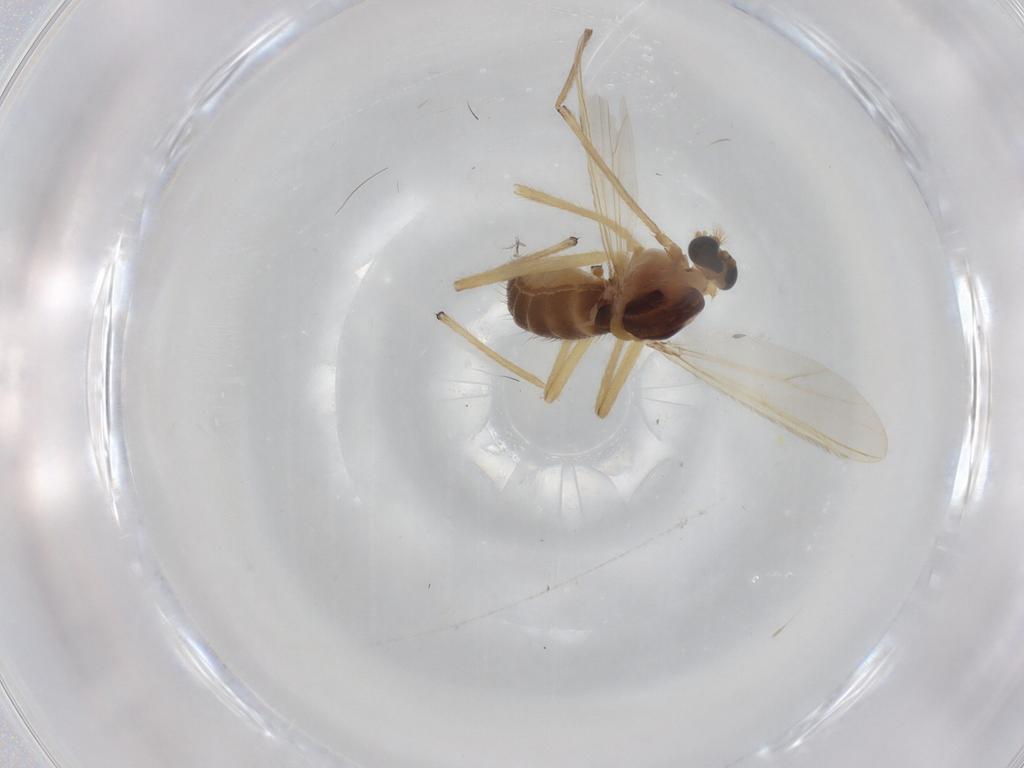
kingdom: Animalia
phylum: Arthropoda
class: Insecta
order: Diptera
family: Chironomidae
